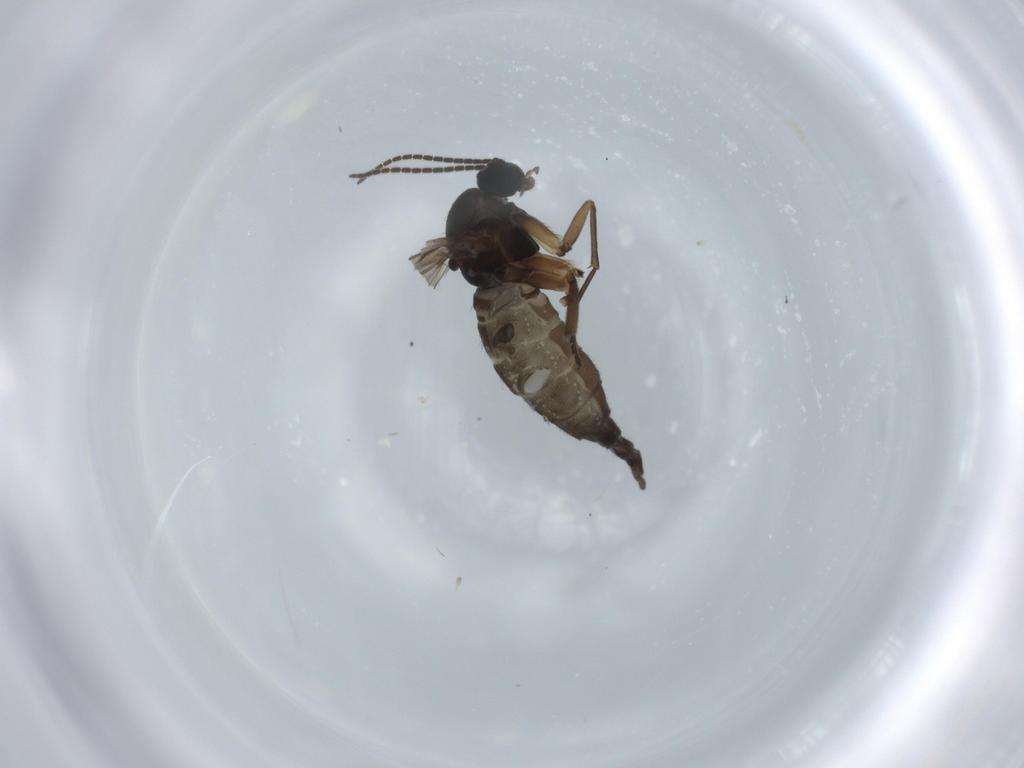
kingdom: Animalia
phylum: Arthropoda
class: Insecta
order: Diptera
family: Sciaridae
